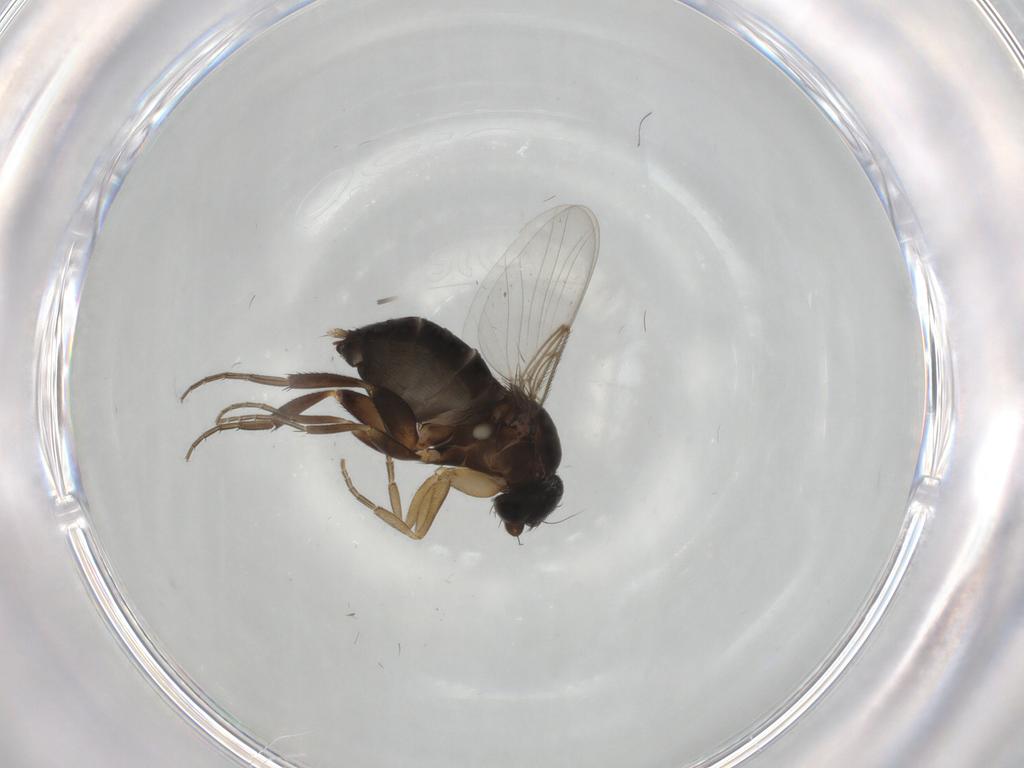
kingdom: Animalia
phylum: Arthropoda
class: Insecta
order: Diptera
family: Phoridae
